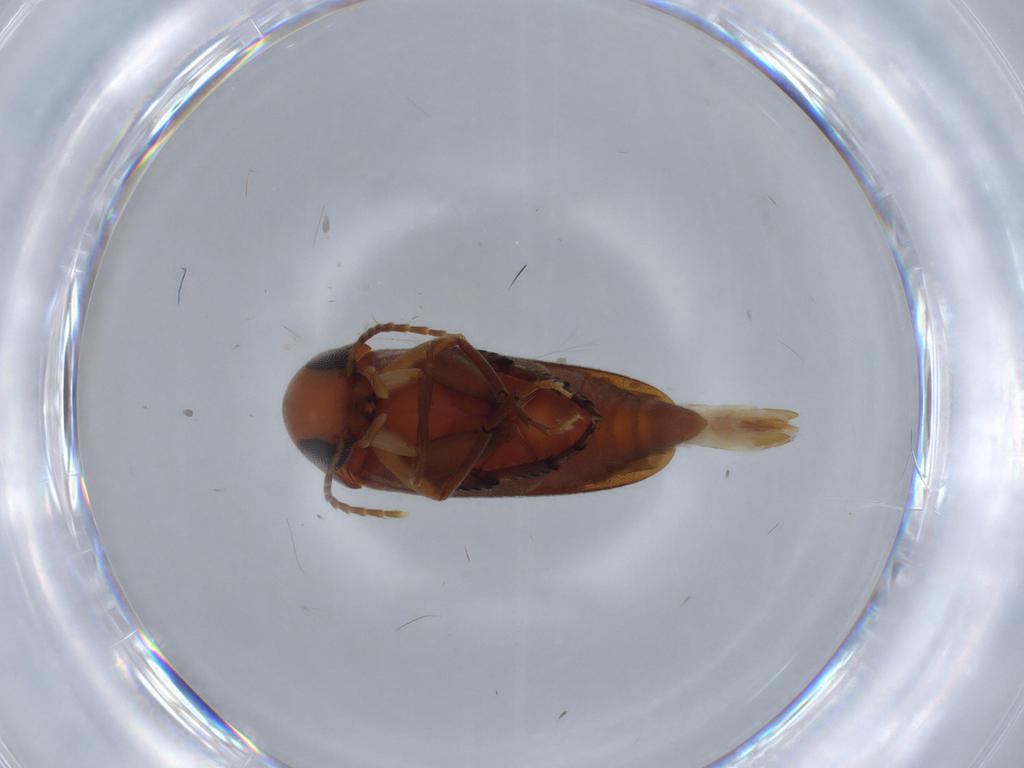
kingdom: Animalia
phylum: Arthropoda
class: Insecta
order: Coleoptera
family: Mordellidae
